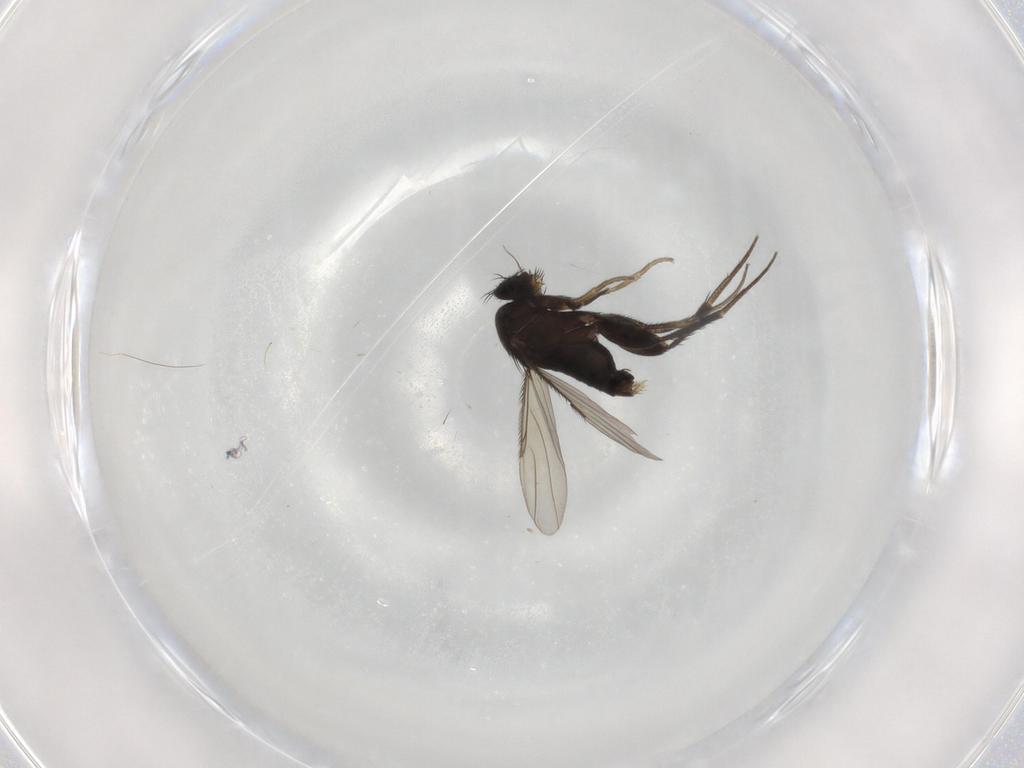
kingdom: Animalia
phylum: Arthropoda
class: Insecta
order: Diptera
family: Phoridae
